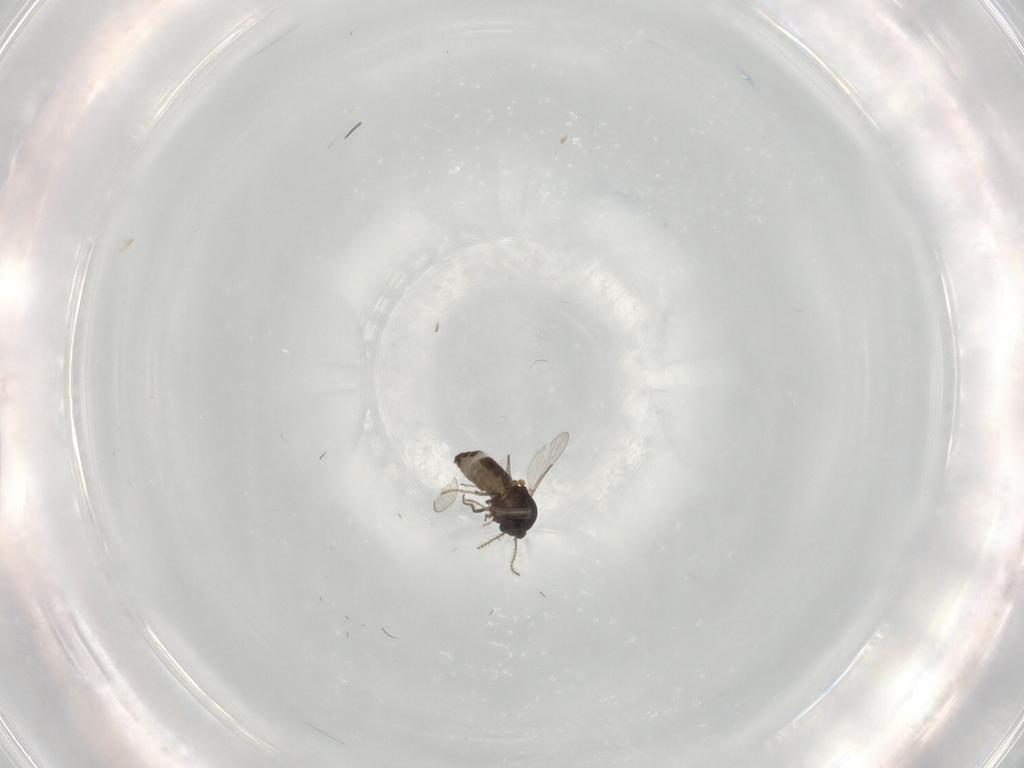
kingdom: Animalia
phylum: Arthropoda
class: Insecta
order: Diptera
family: Ceratopogonidae
